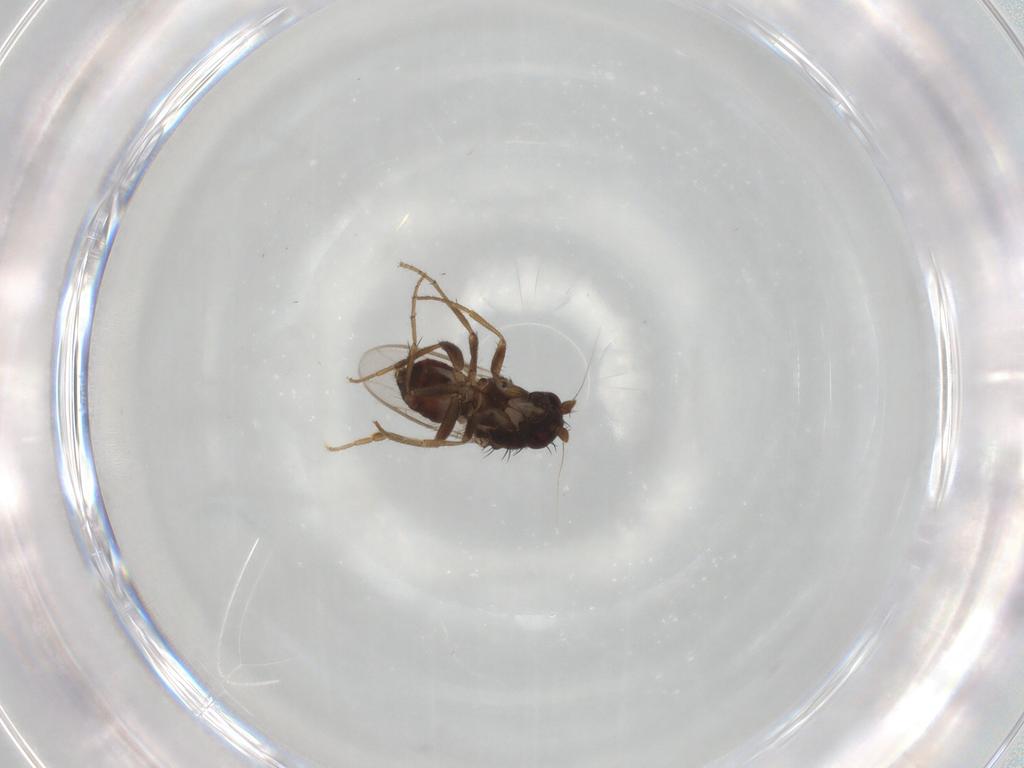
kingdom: Animalia
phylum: Arthropoda
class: Insecta
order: Diptera
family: Sphaeroceridae
